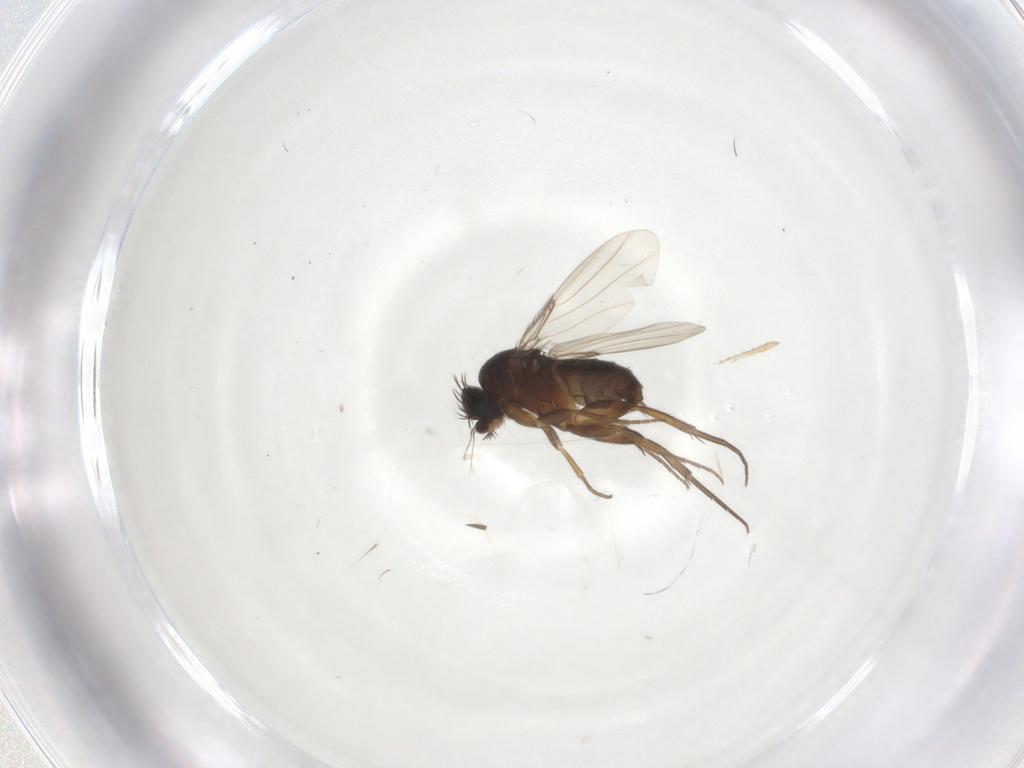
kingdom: Animalia
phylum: Arthropoda
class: Insecta
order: Diptera
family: Phoridae
